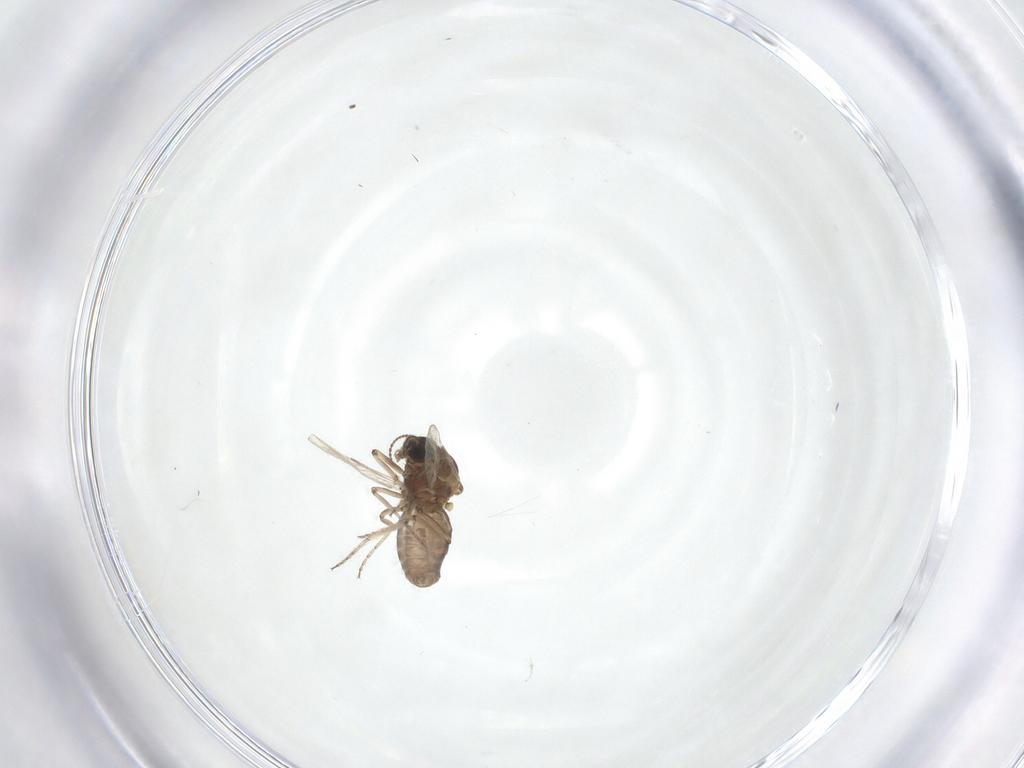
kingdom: Animalia
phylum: Arthropoda
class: Insecta
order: Diptera
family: Ceratopogonidae
